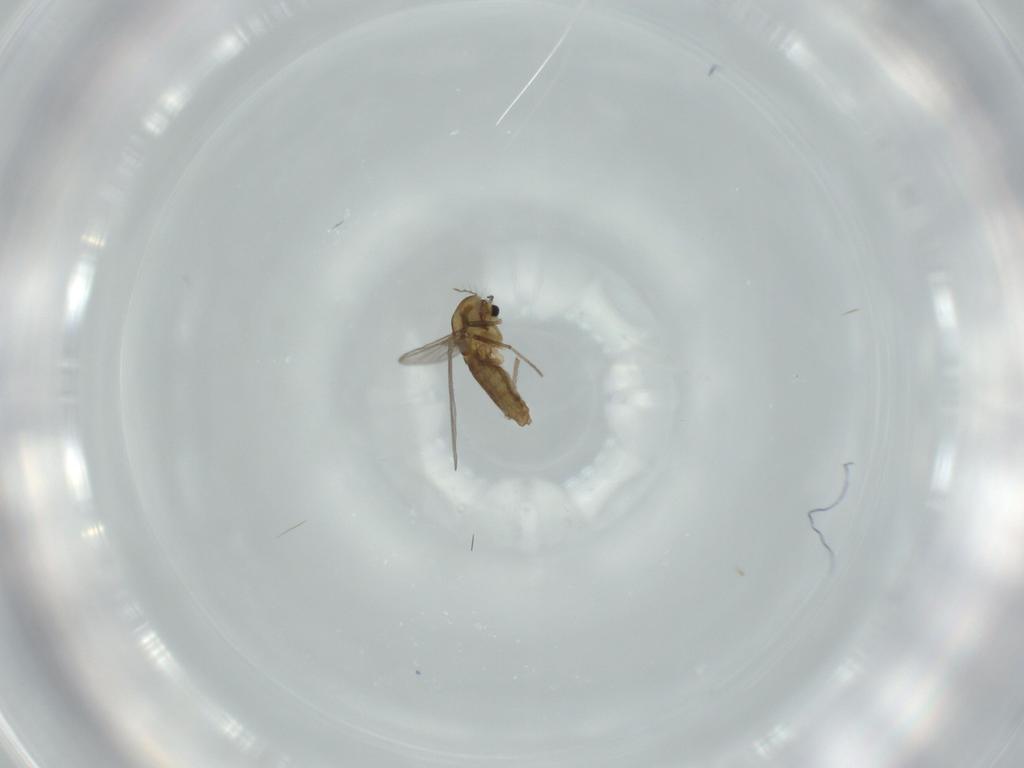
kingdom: Animalia
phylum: Arthropoda
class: Insecta
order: Diptera
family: Chironomidae
